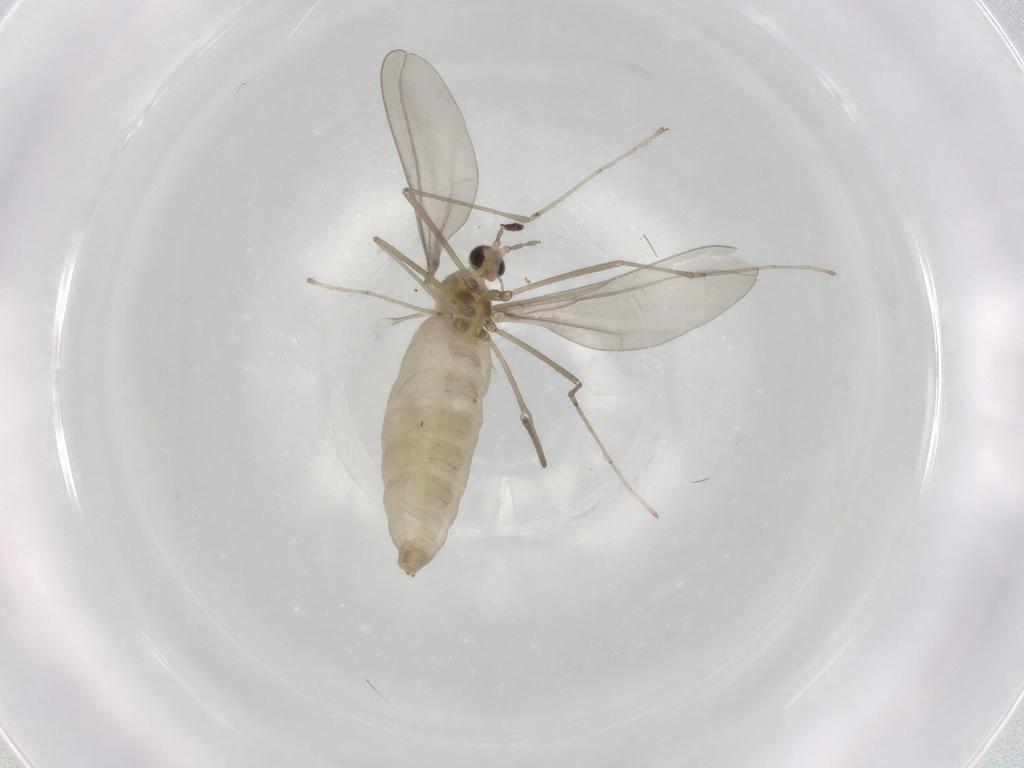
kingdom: Animalia
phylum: Arthropoda
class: Insecta
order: Diptera
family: Cecidomyiidae
